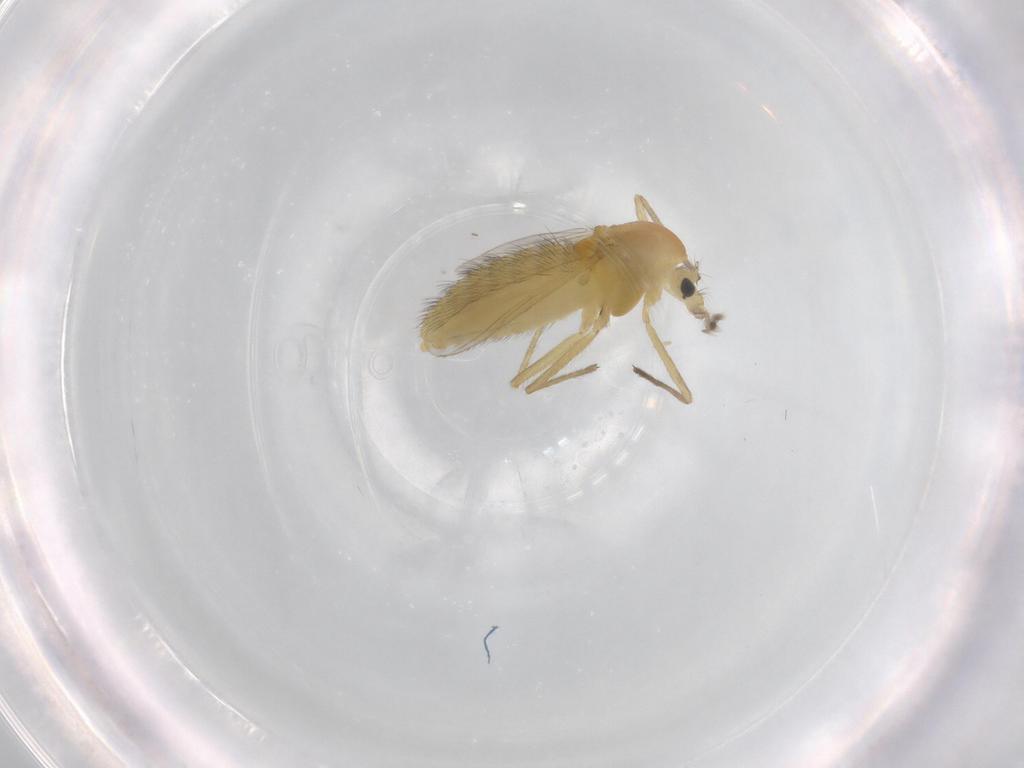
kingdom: Animalia
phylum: Arthropoda
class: Insecta
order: Diptera
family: Chironomidae
